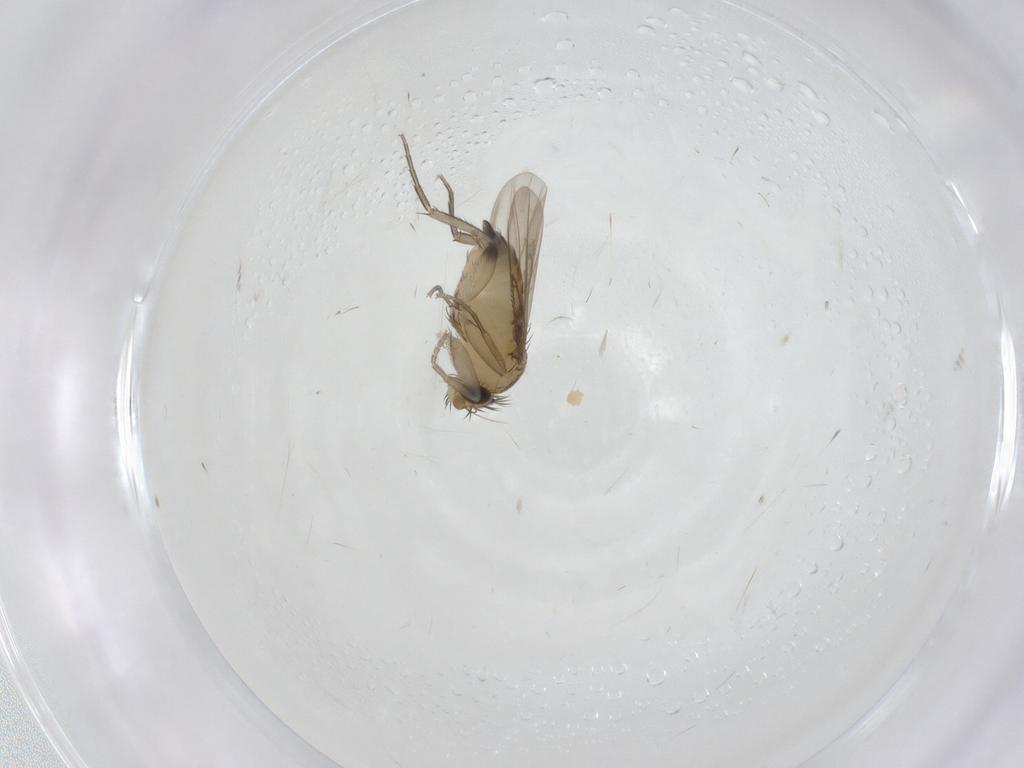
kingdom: Animalia
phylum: Arthropoda
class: Insecta
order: Diptera
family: Phoridae
